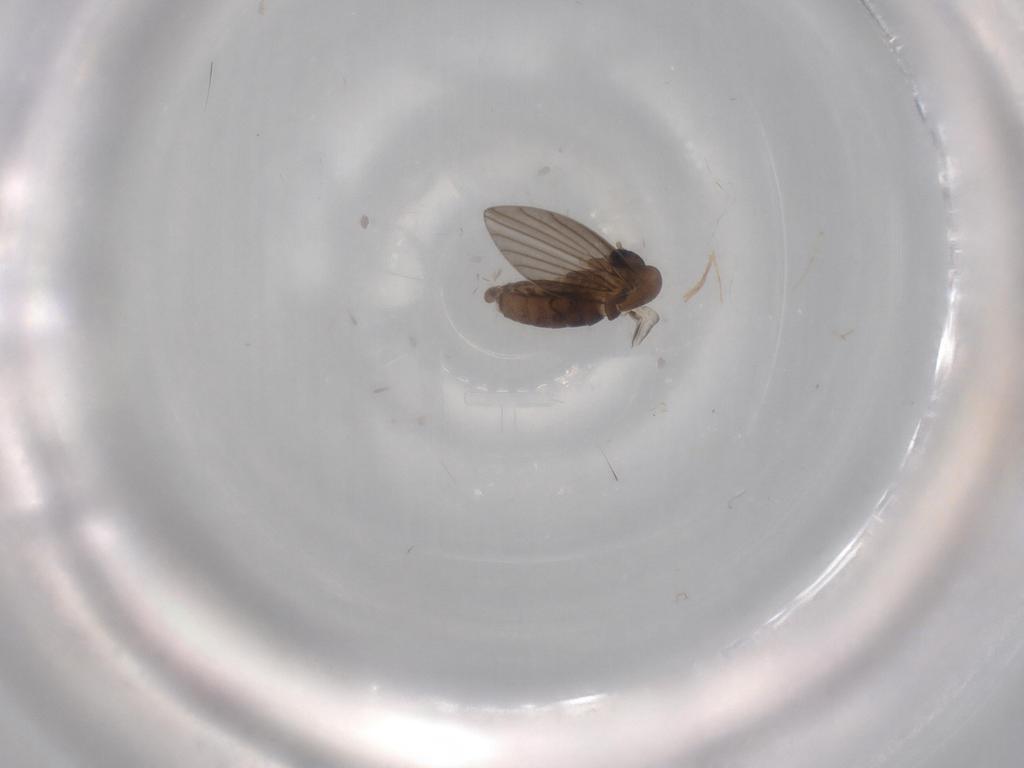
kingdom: Animalia
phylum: Arthropoda
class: Insecta
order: Diptera
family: Sciaridae
